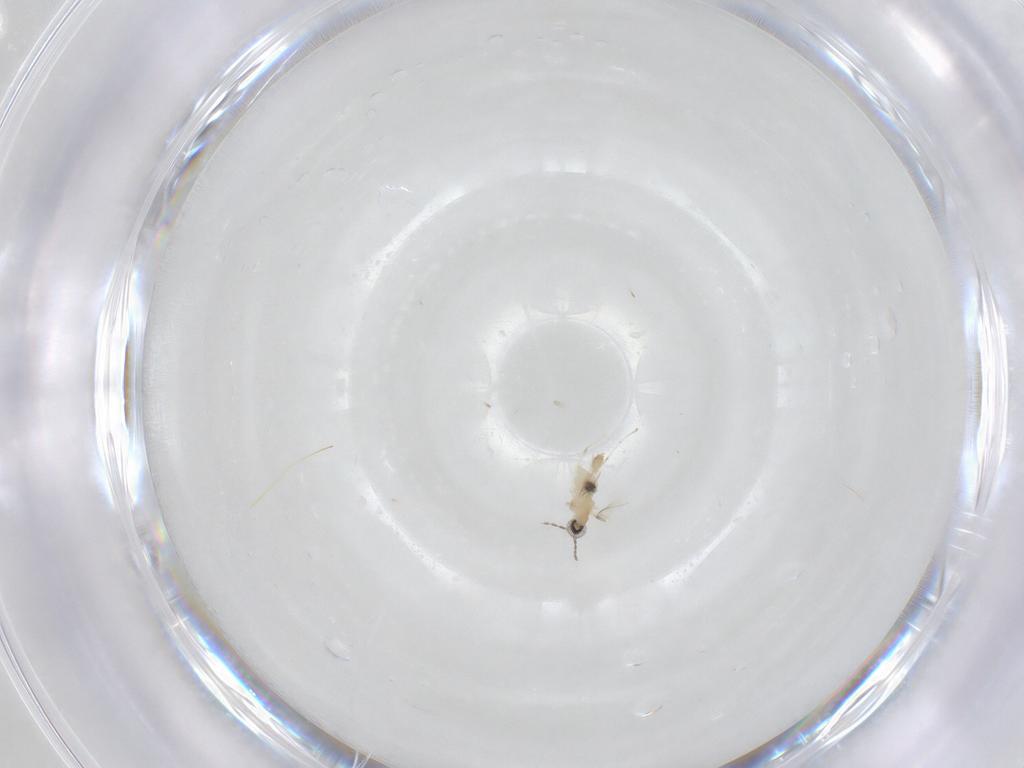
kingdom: Animalia
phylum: Arthropoda
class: Insecta
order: Diptera
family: Cecidomyiidae
